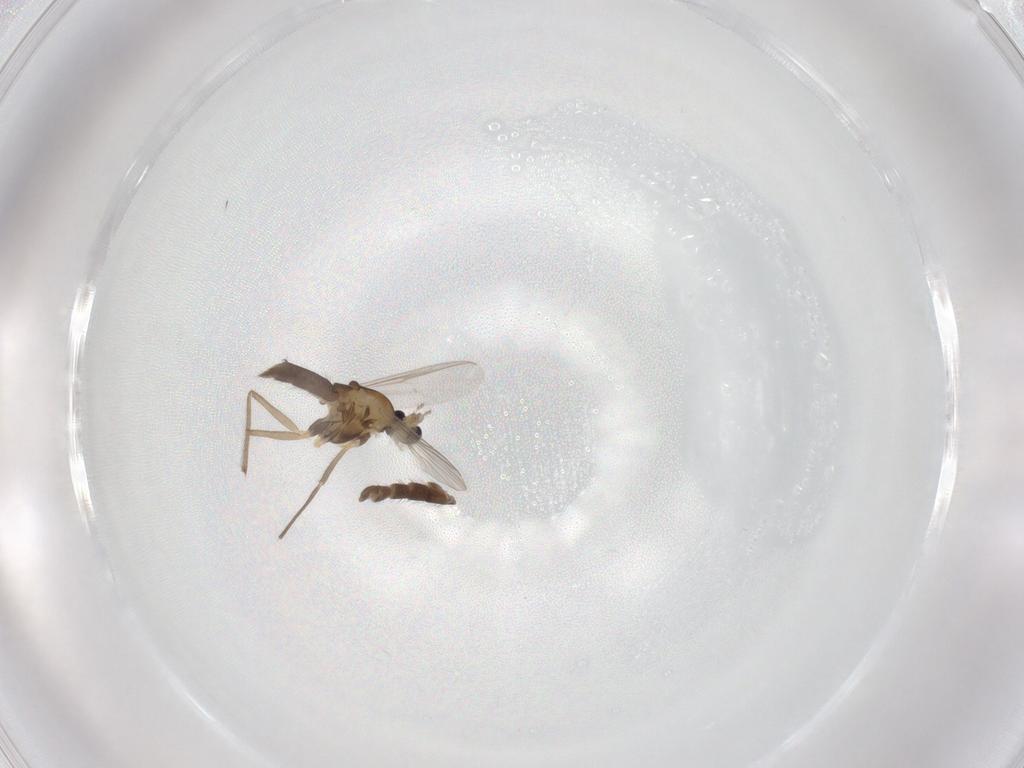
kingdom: Animalia
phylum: Arthropoda
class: Insecta
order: Diptera
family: Chironomidae
